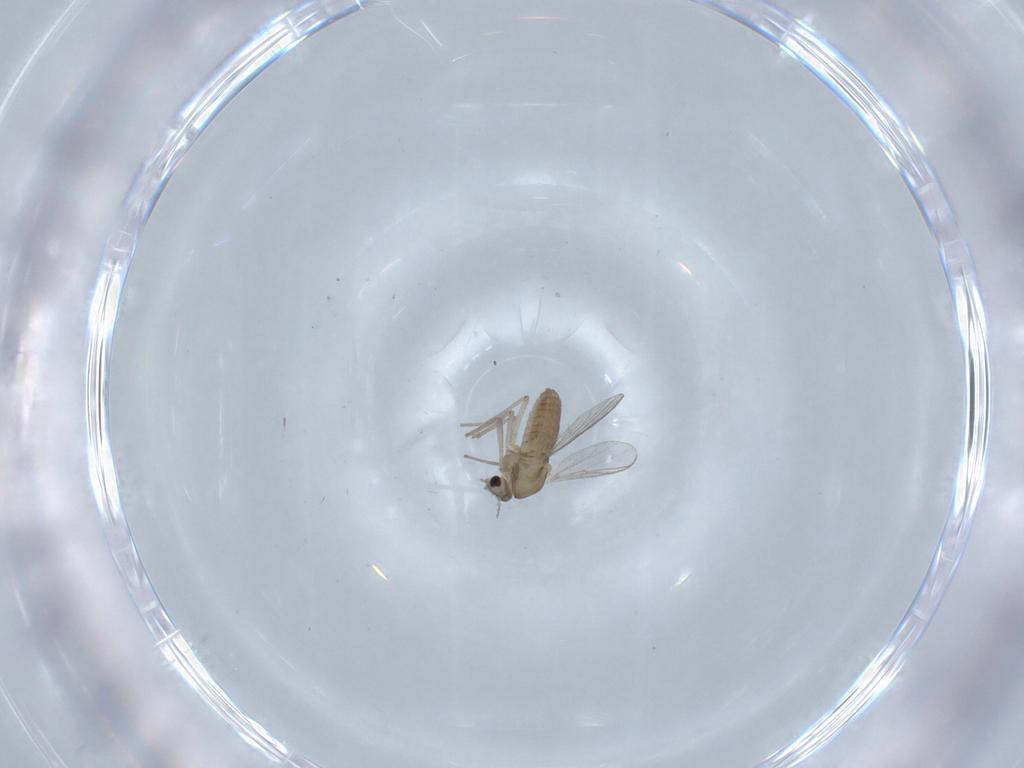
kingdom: Animalia
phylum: Arthropoda
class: Insecta
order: Diptera
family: Chironomidae
